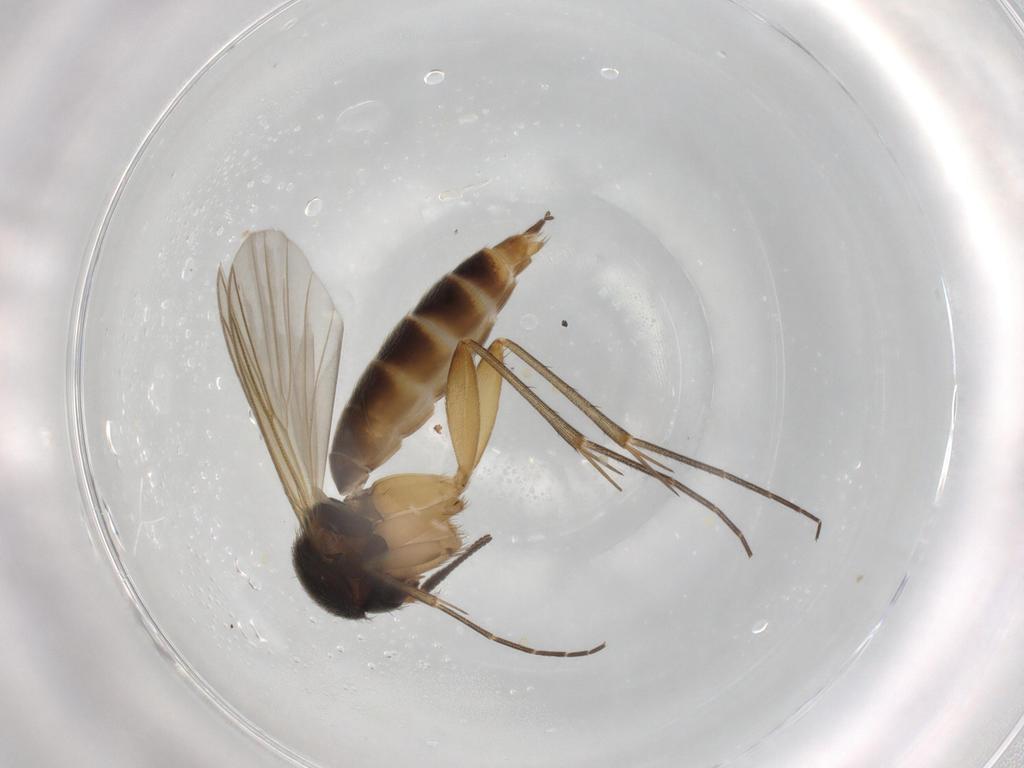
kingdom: Animalia
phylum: Arthropoda
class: Insecta
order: Diptera
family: Mycetophilidae
